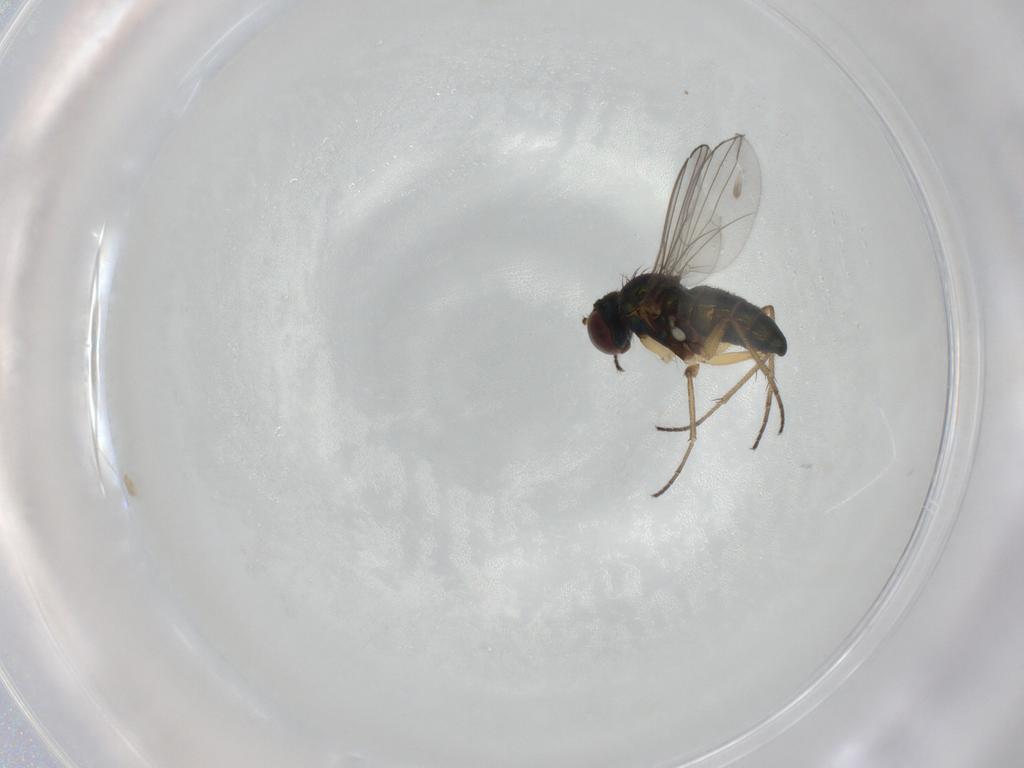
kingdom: Animalia
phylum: Arthropoda
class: Insecta
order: Diptera
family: Dolichopodidae
